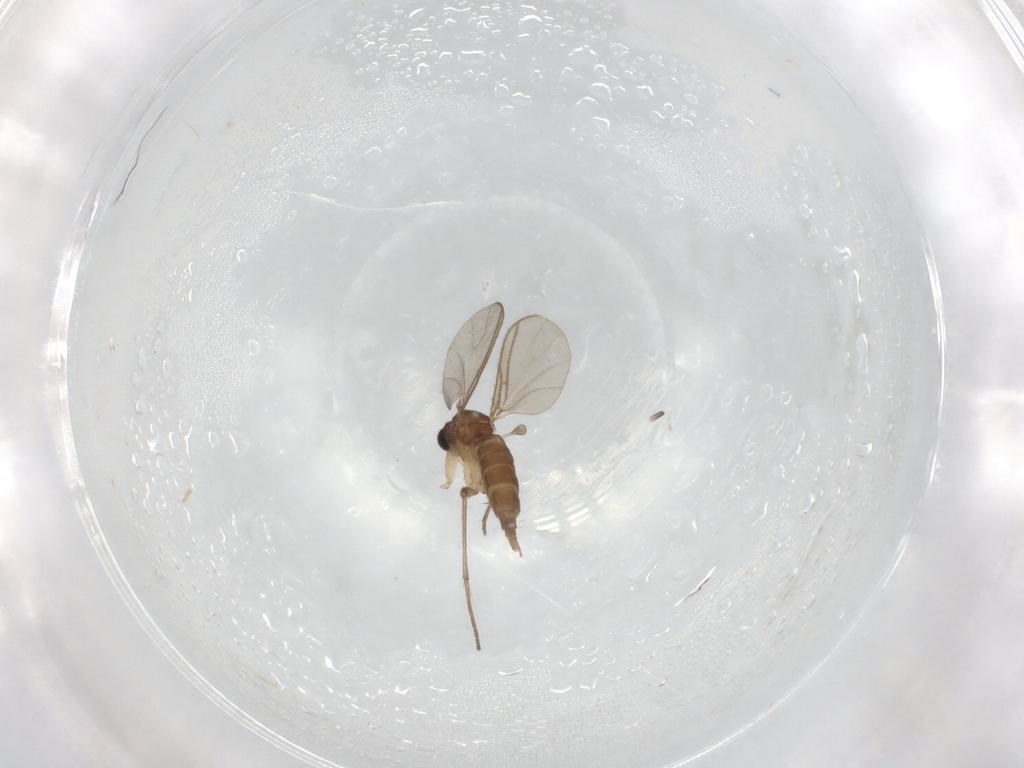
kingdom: Animalia
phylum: Arthropoda
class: Insecta
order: Diptera
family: Sciaridae
